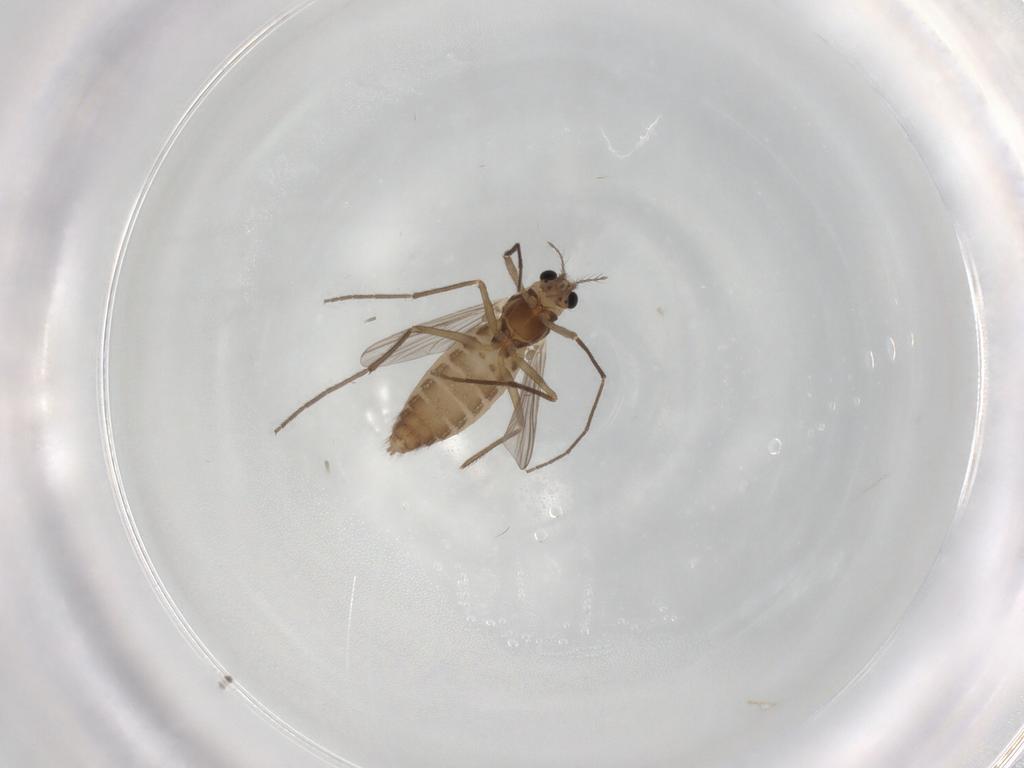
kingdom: Animalia
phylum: Arthropoda
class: Insecta
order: Diptera
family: Chironomidae
